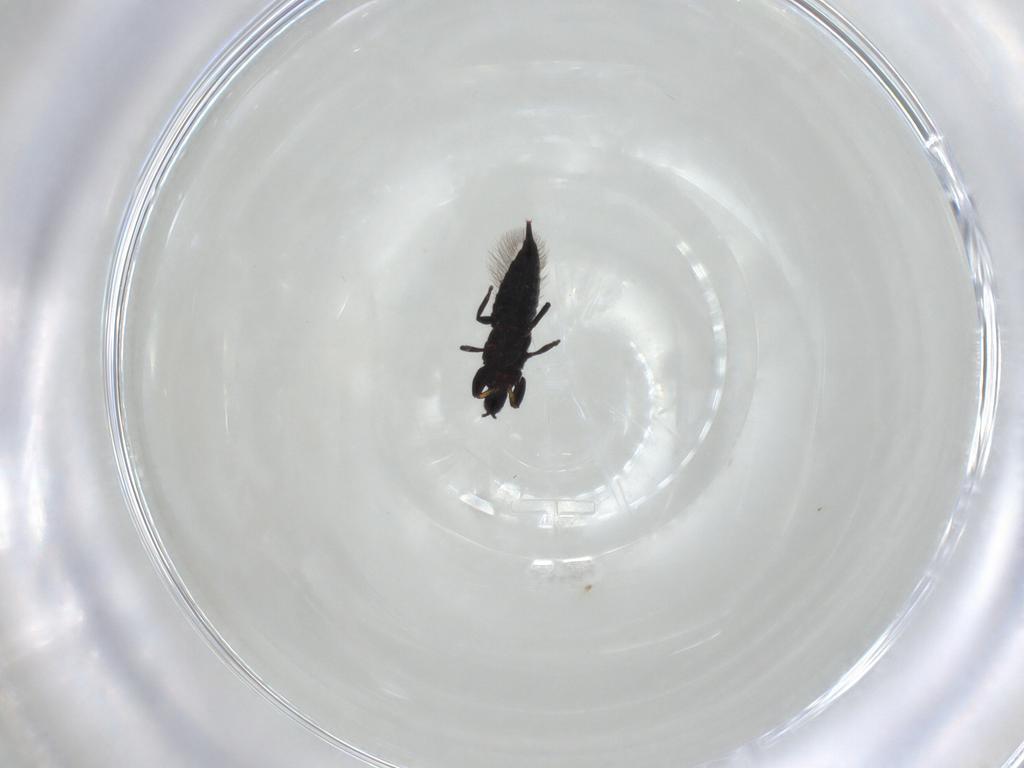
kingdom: Animalia
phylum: Arthropoda
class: Insecta
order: Thysanoptera
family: Phlaeothripidae
